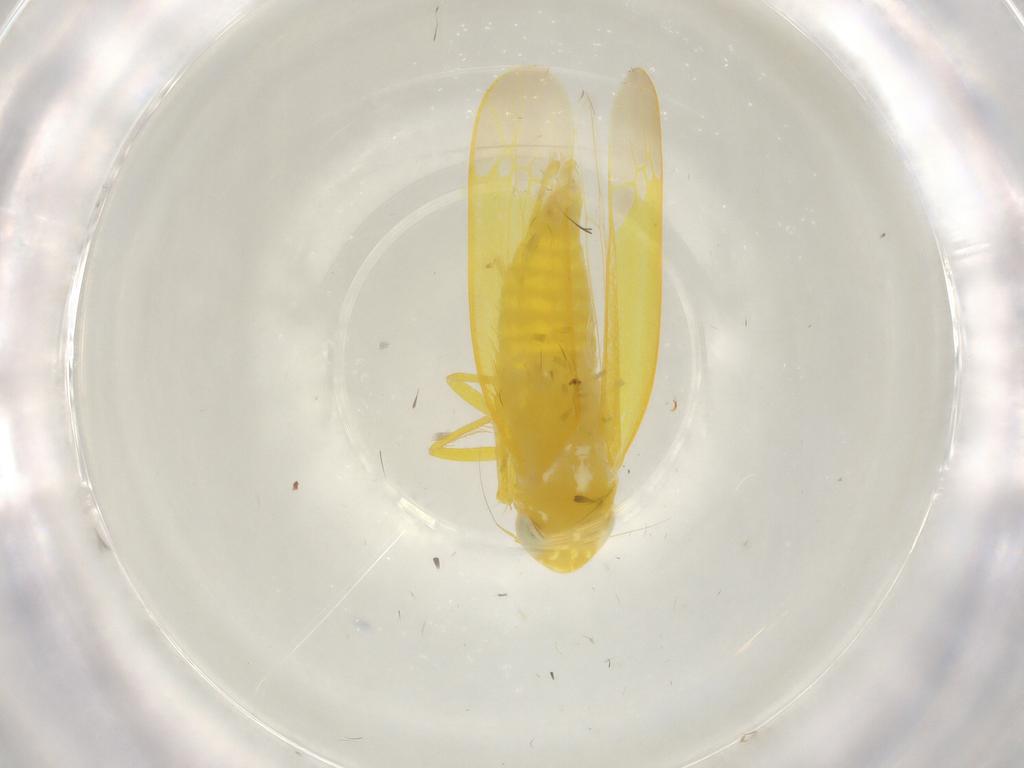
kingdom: Animalia
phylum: Arthropoda
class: Insecta
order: Hemiptera
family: Cicadellidae
